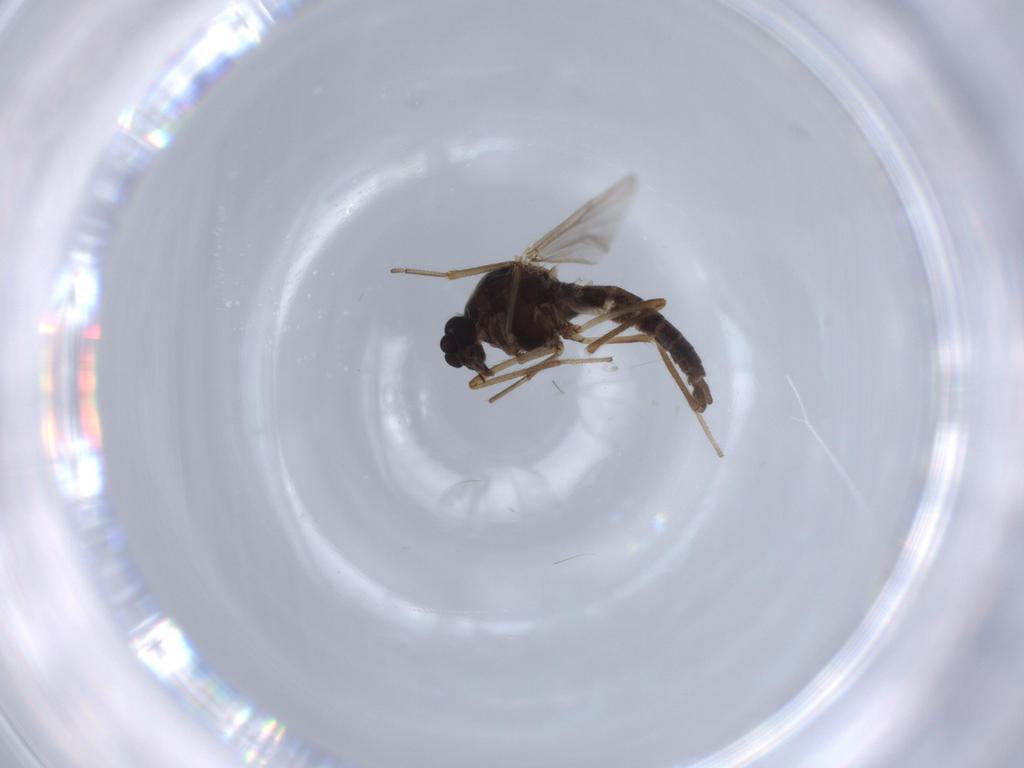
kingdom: Animalia
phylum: Arthropoda
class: Insecta
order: Diptera
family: Ceratopogonidae
